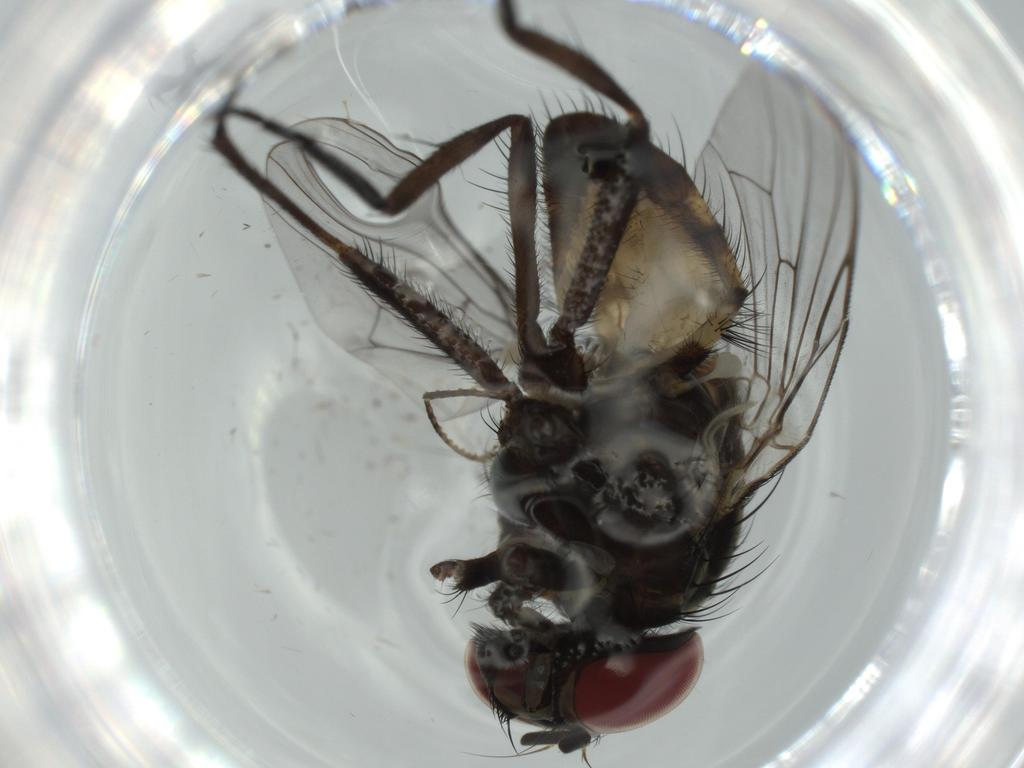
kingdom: Animalia
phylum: Arthropoda
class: Insecta
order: Diptera
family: Fannia
